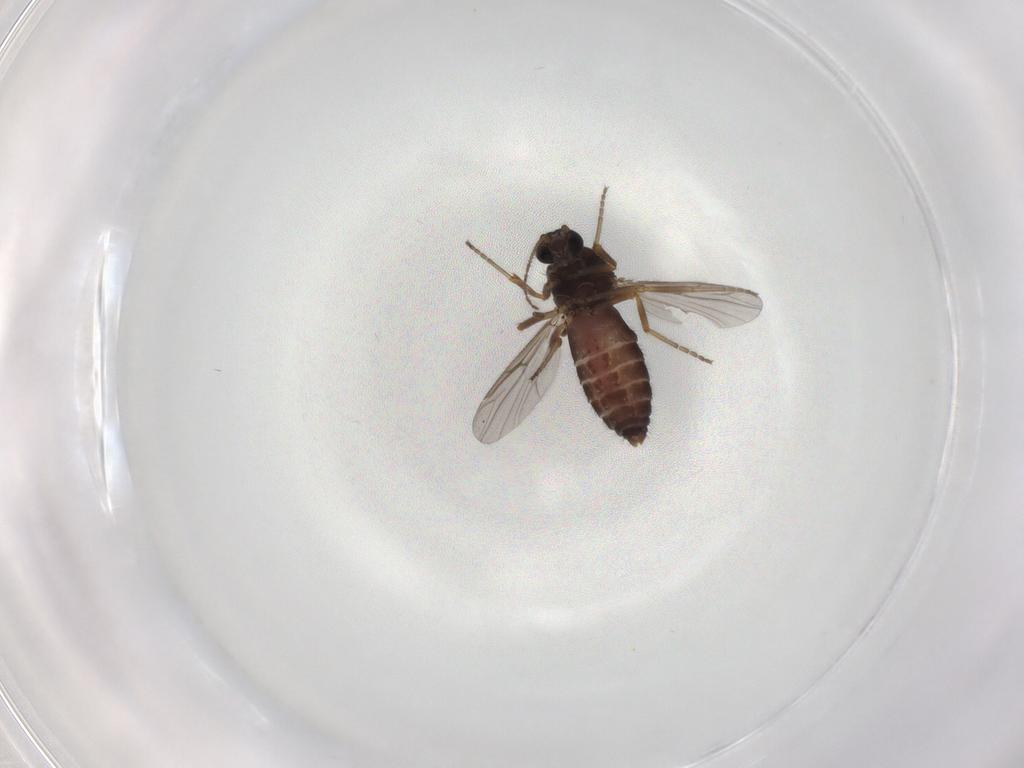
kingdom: Animalia
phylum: Arthropoda
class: Insecta
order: Diptera
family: Ceratopogonidae
